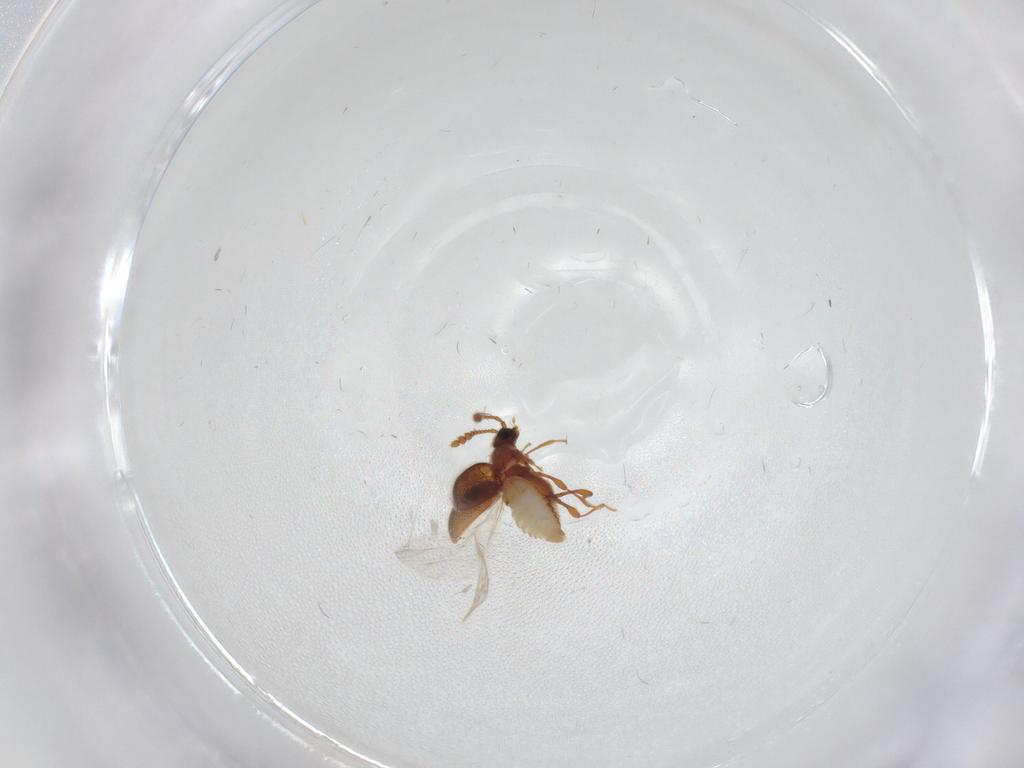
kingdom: Animalia
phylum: Arthropoda
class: Insecta
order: Coleoptera
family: Staphylinidae
